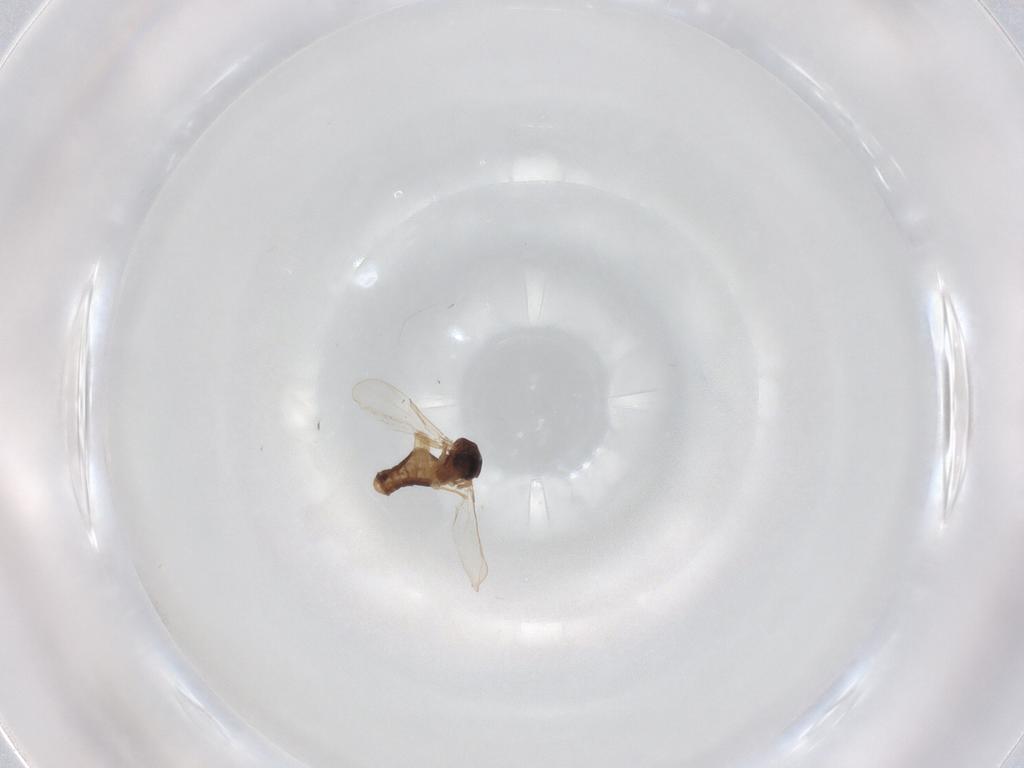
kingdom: Animalia
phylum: Arthropoda
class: Insecta
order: Diptera
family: Ceratopogonidae
